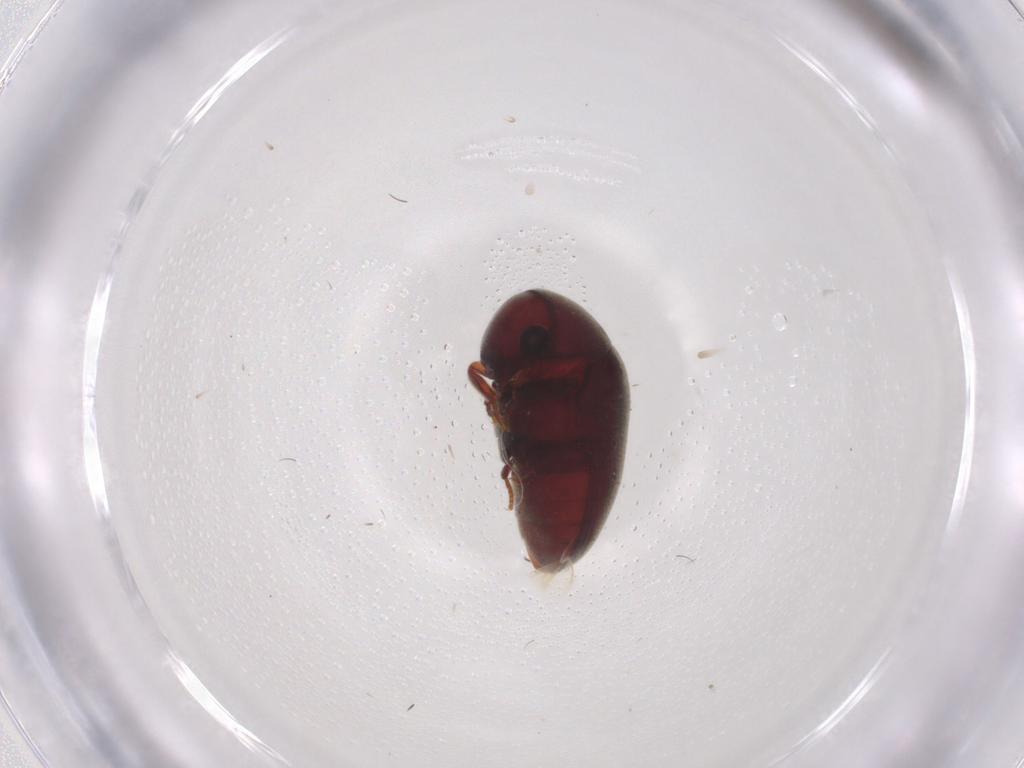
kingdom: Animalia
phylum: Arthropoda
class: Insecta
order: Coleoptera
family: Ptinidae
